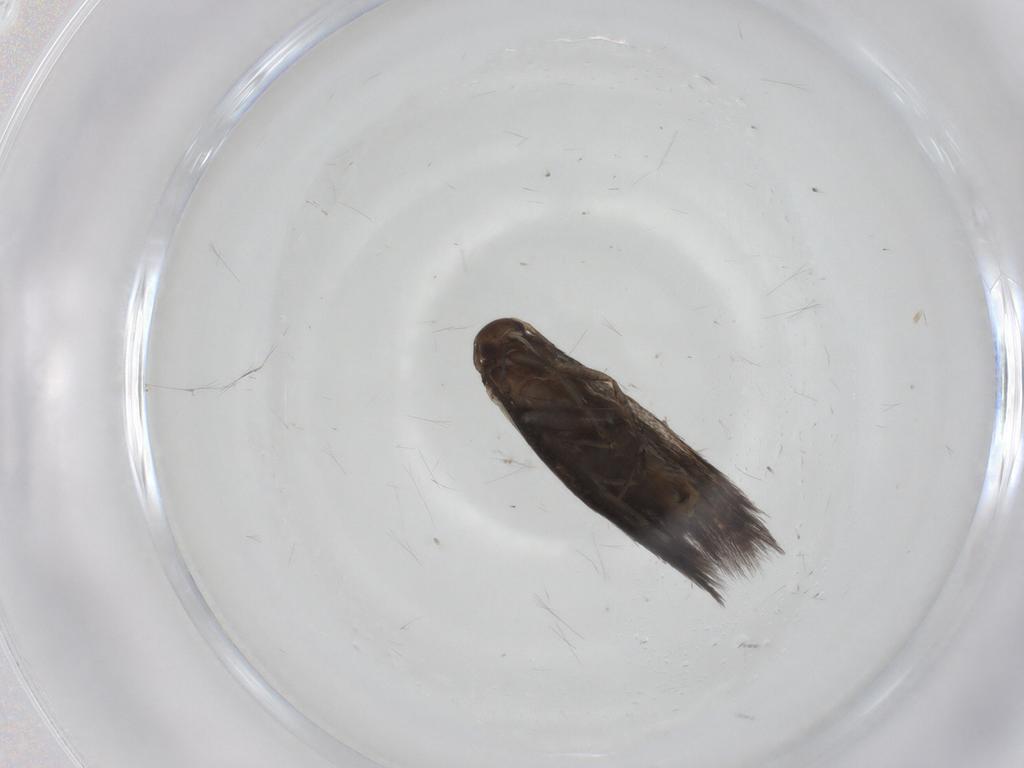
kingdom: Animalia
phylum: Arthropoda
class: Insecta
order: Lepidoptera
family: Elachistidae
